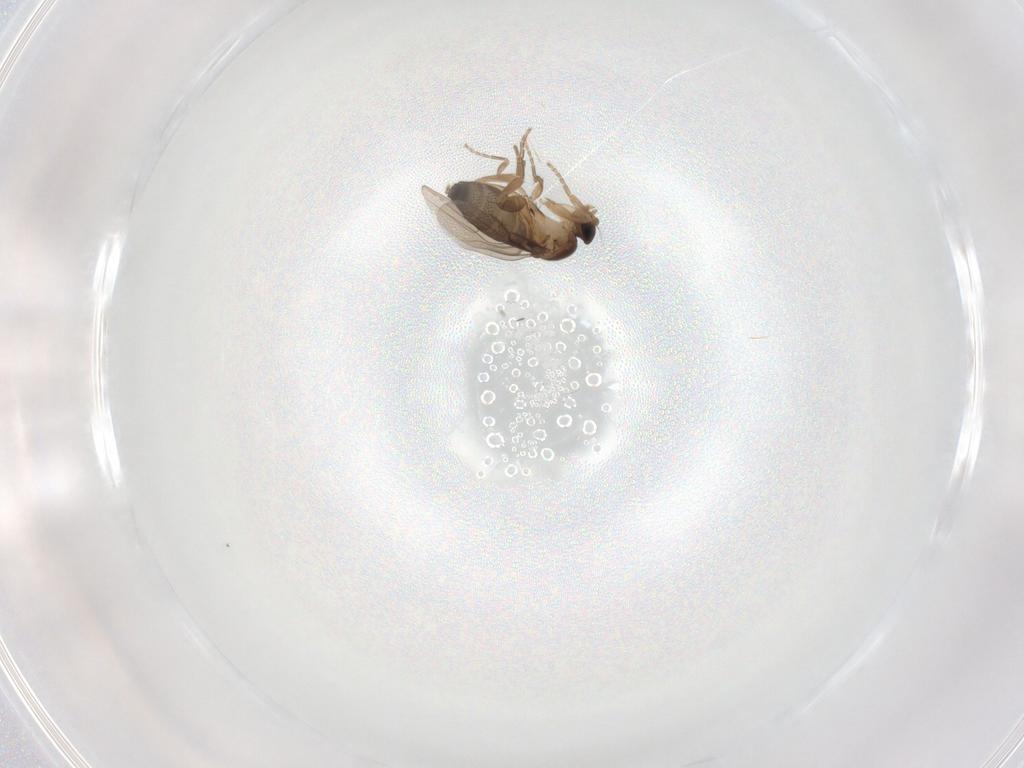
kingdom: Animalia
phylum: Arthropoda
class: Insecta
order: Diptera
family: Phoridae
